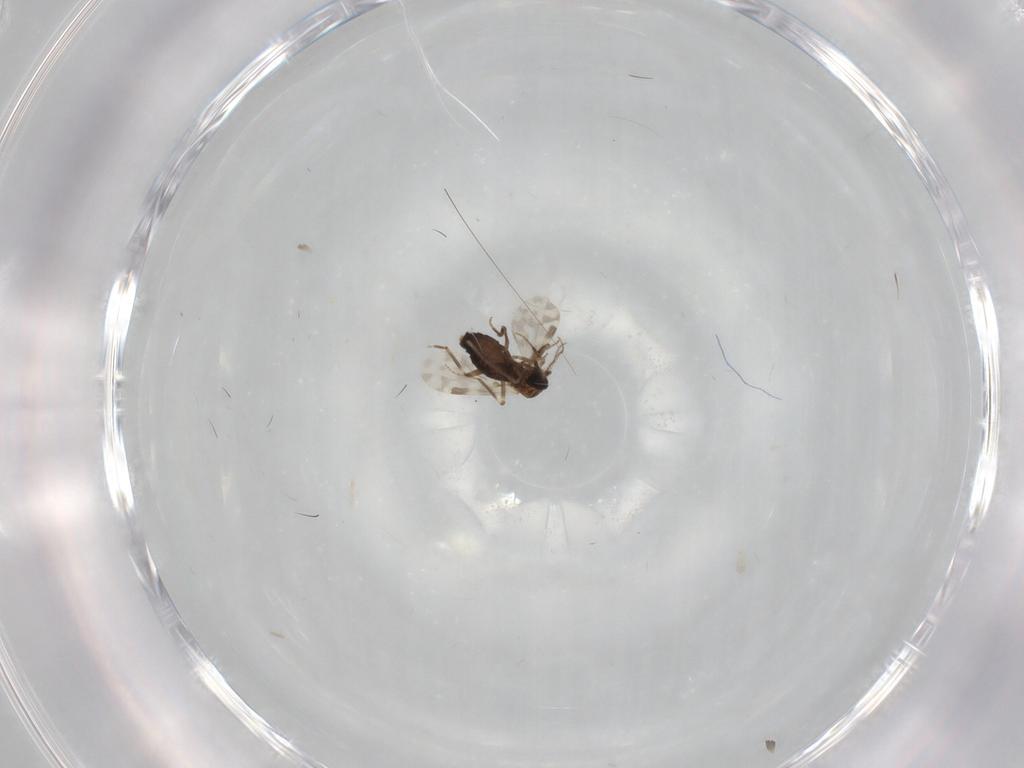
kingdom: Animalia
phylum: Arthropoda
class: Insecta
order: Diptera
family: Ceratopogonidae
